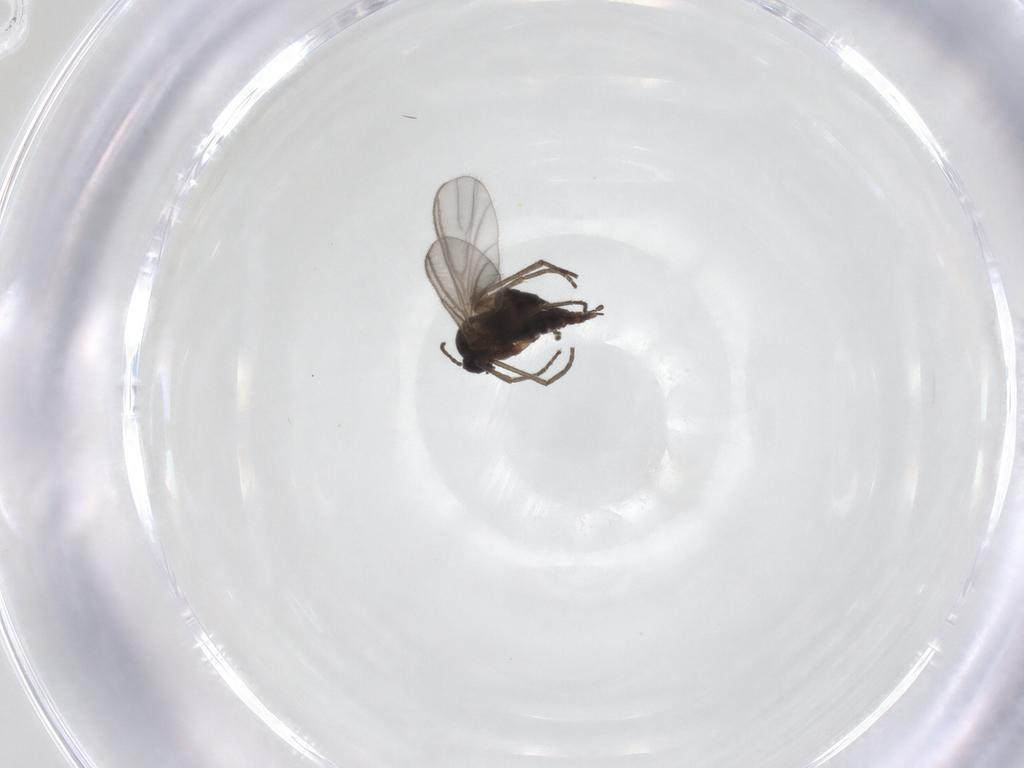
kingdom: Animalia
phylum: Arthropoda
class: Insecta
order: Diptera
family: Sciaridae
